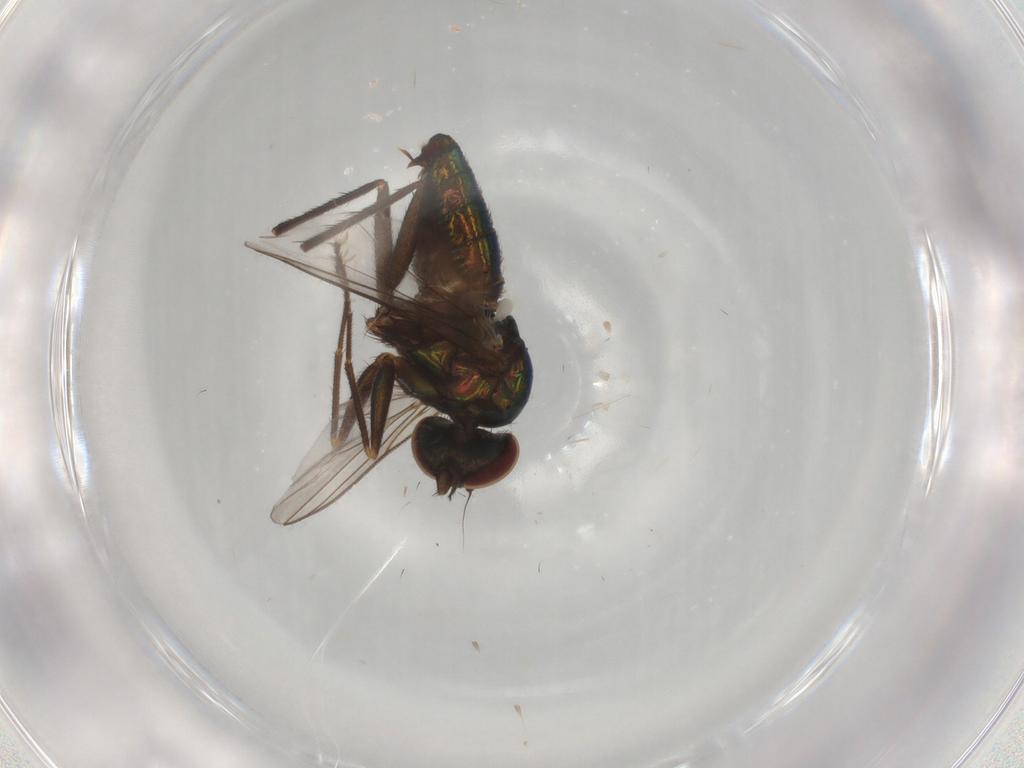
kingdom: Animalia
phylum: Arthropoda
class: Insecta
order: Diptera
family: Dolichopodidae
